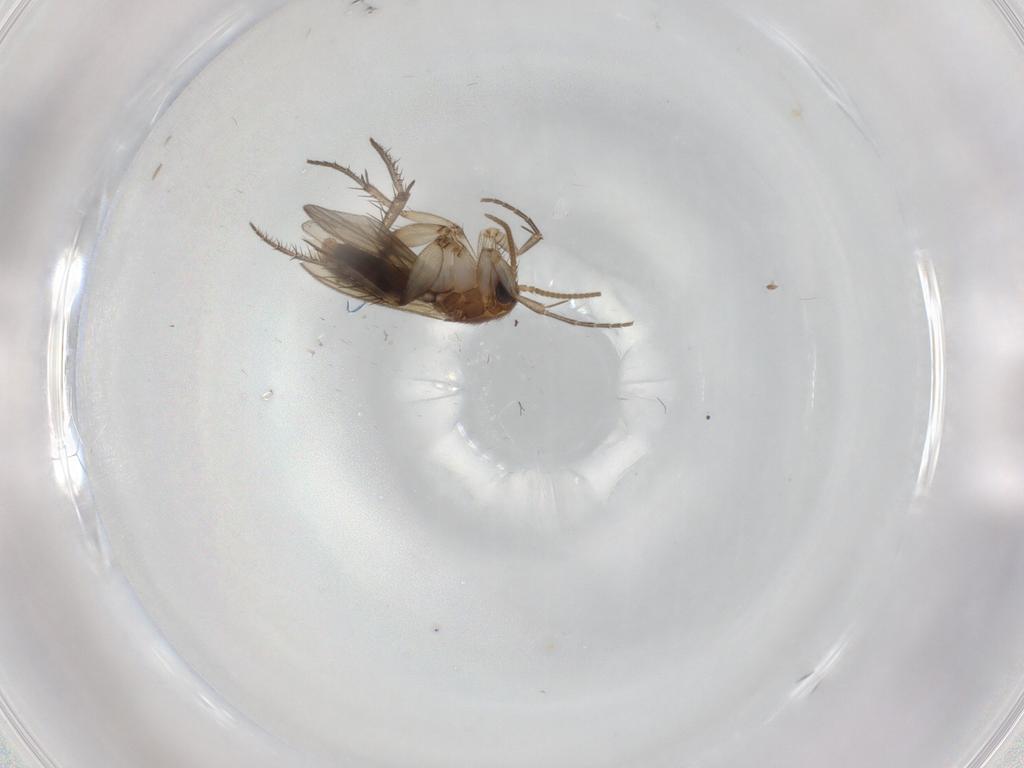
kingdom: Animalia
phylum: Arthropoda
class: Insecta
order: Diptera
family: Mycetophilidae
